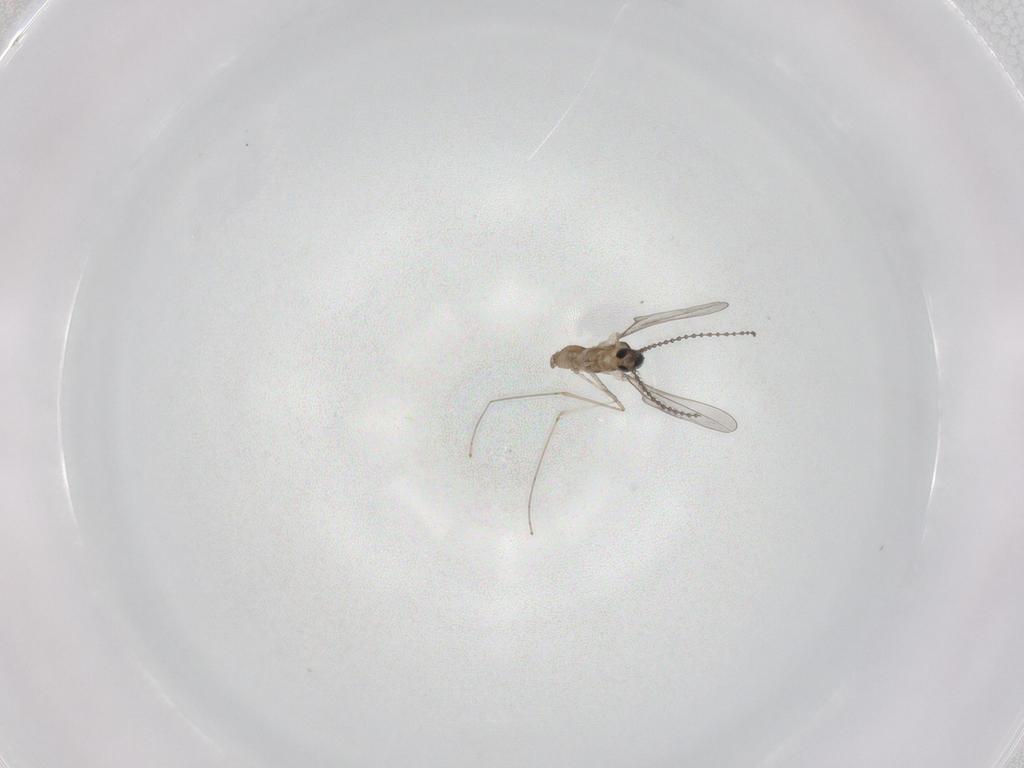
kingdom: Animalia
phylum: Arthropoda
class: Insecta
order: Diptera
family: Cecidomyiidae
